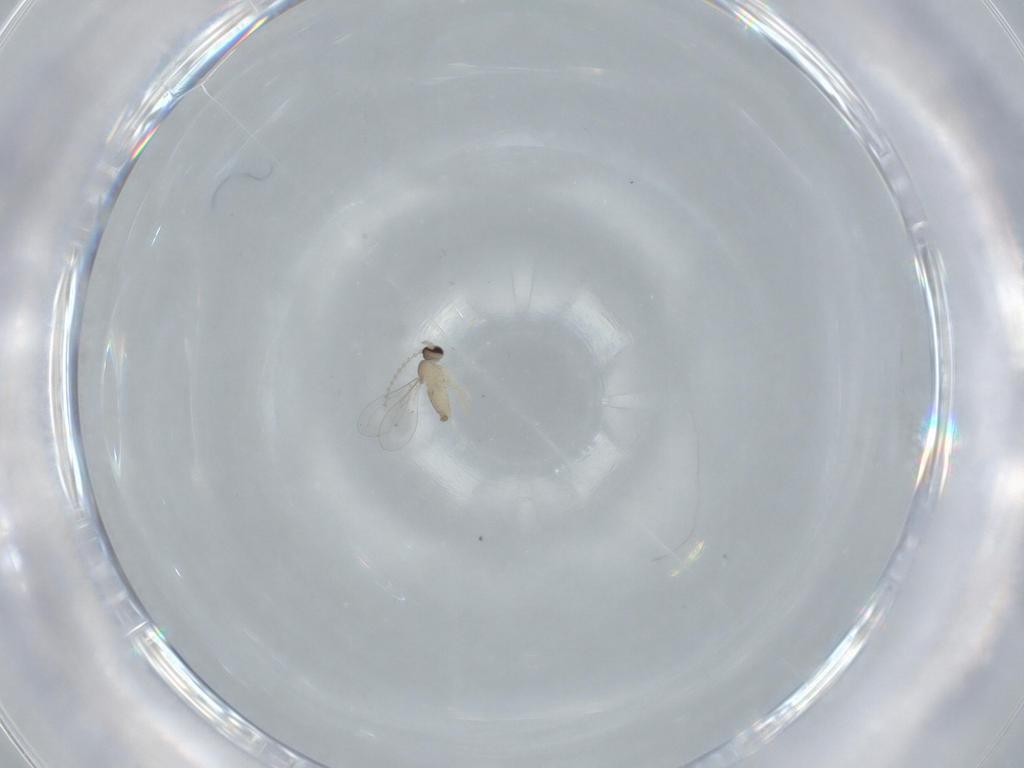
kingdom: Animalia
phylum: Arthropoda
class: Insecta
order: Diptera
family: Cecidomyiidae
